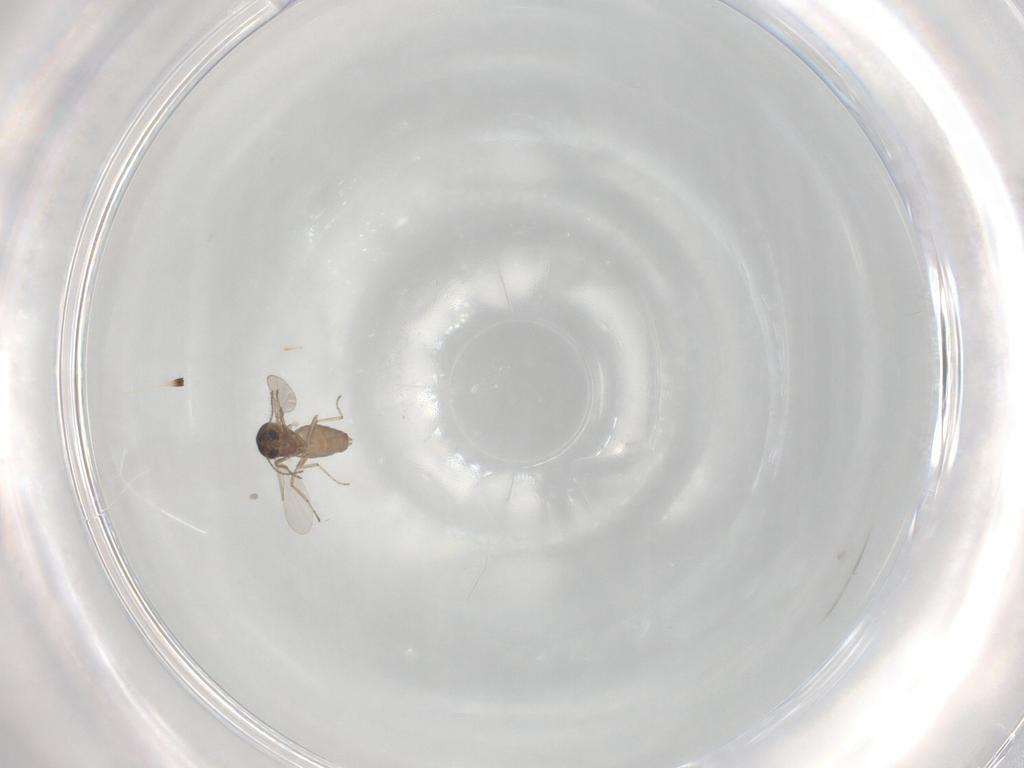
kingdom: Animalia
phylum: Arthropoda
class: Insecta
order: Diptera
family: Ceratopogonidae
